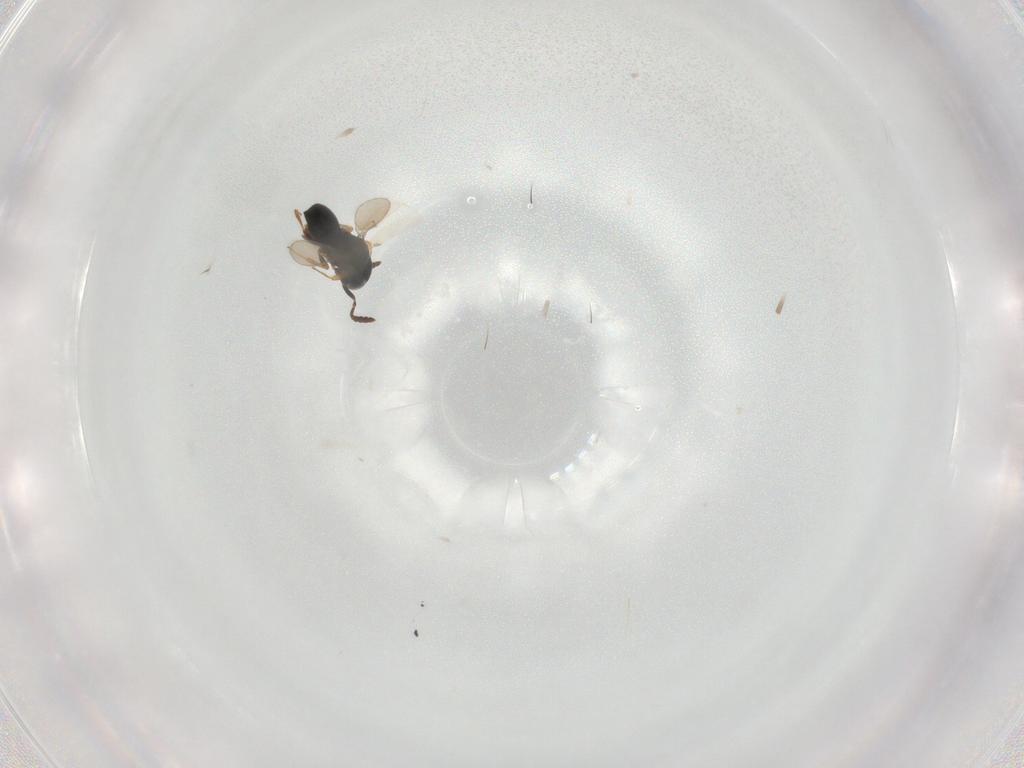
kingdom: Animalia
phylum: Arthropoda
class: Insecta
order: Hymenoptera
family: Scelionidae
